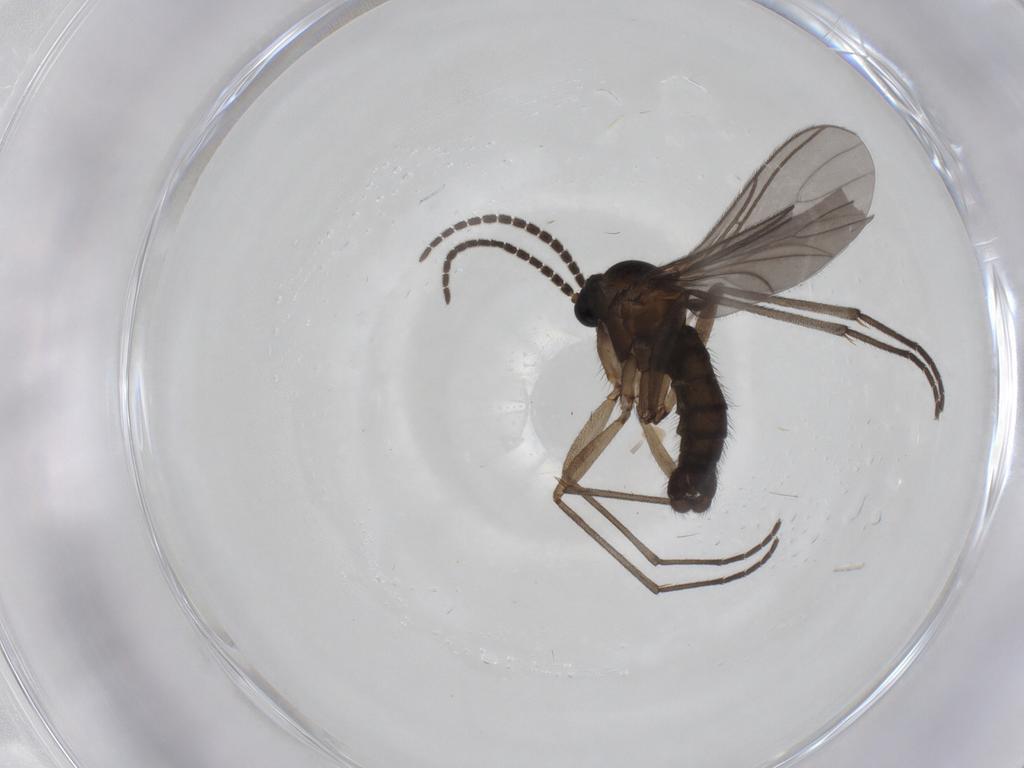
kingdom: Animalia
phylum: Arthropoda
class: Insecta
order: Diptera
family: Sciaridae
